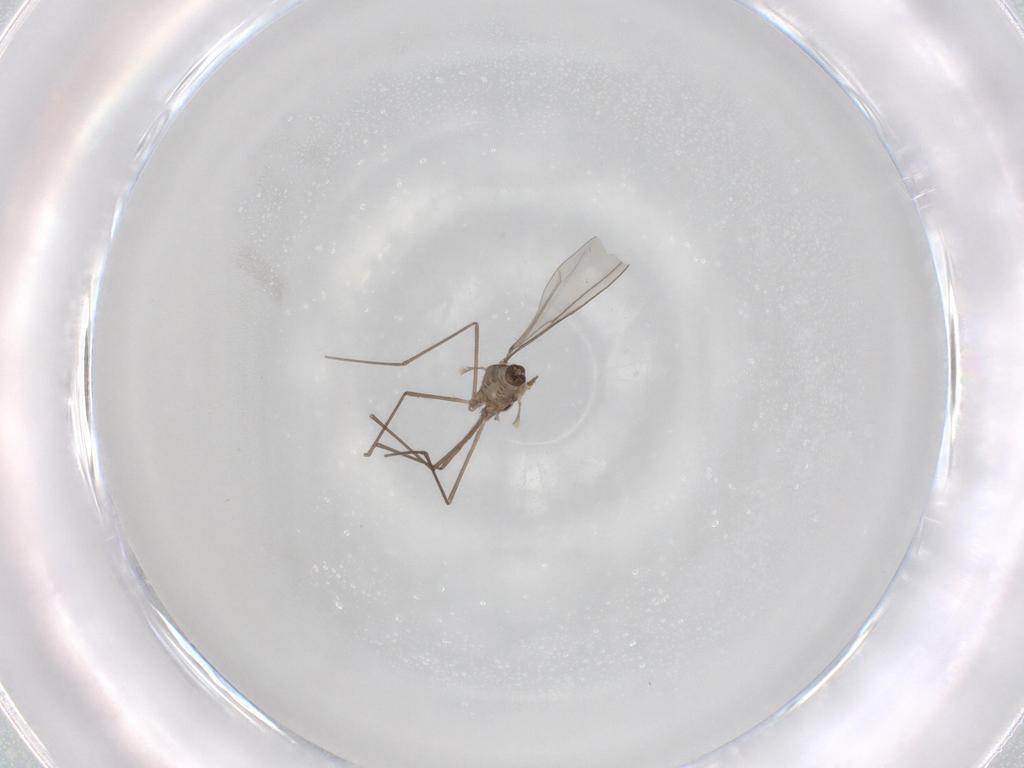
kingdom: Animalia
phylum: Arthropoda
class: Insecta
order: Diptera
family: Cecidomyiidae
